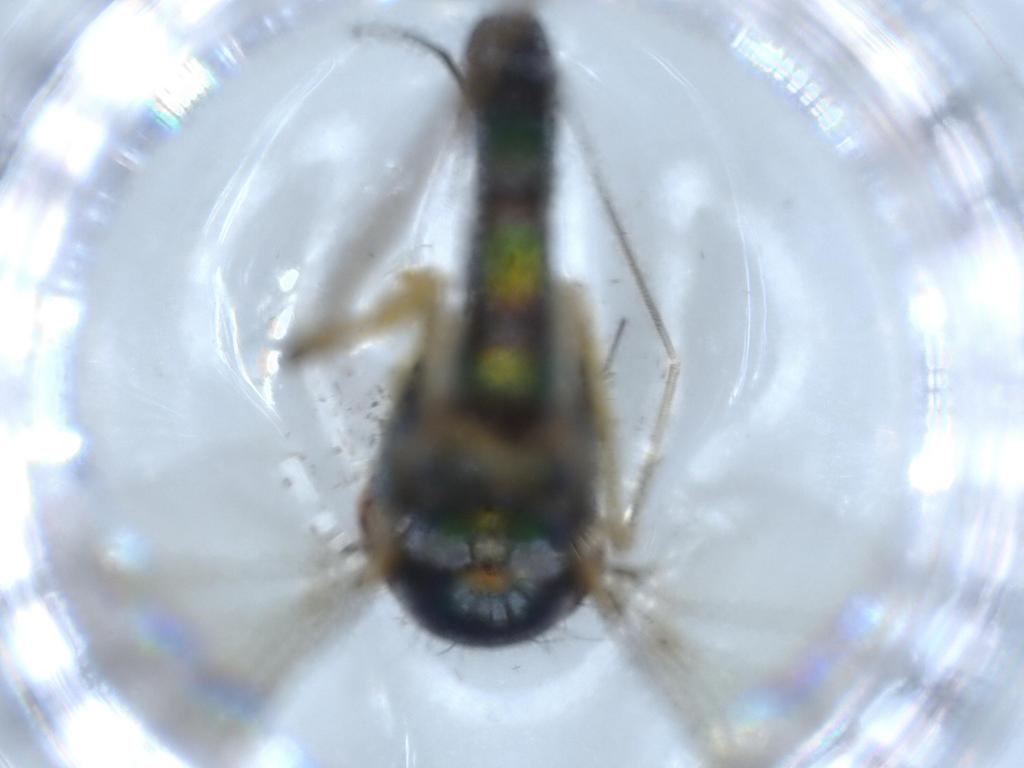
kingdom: Animalia
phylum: Arthropoda
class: Insecta
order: Diptera
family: Dolichopodidae
